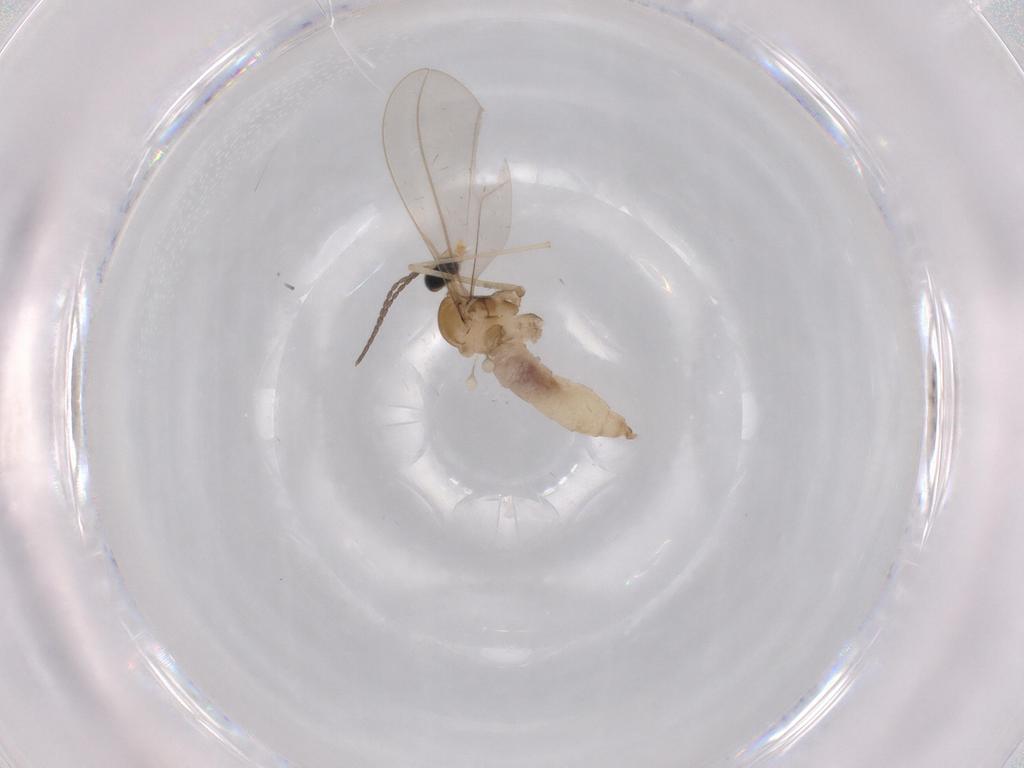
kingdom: Animalia
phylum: Arthropoda
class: Insecta
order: Diptera
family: Cecidomyiidae
